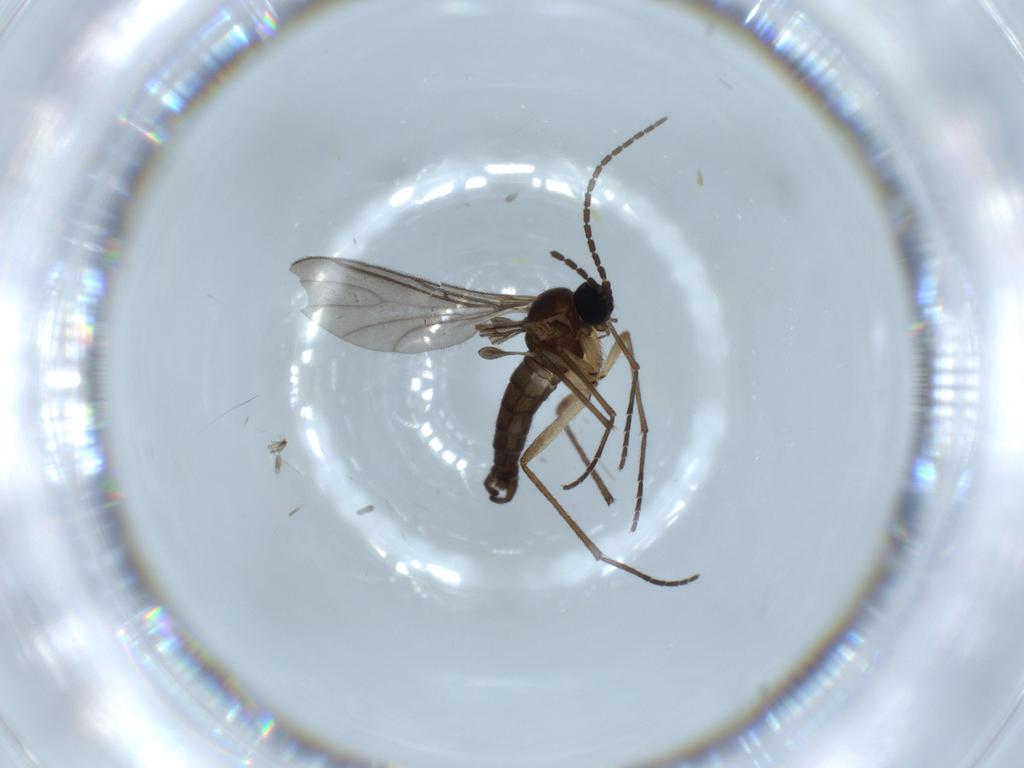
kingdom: Animalia
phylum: Arthropoda
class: Insecta
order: Diptera
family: Sciaridae
